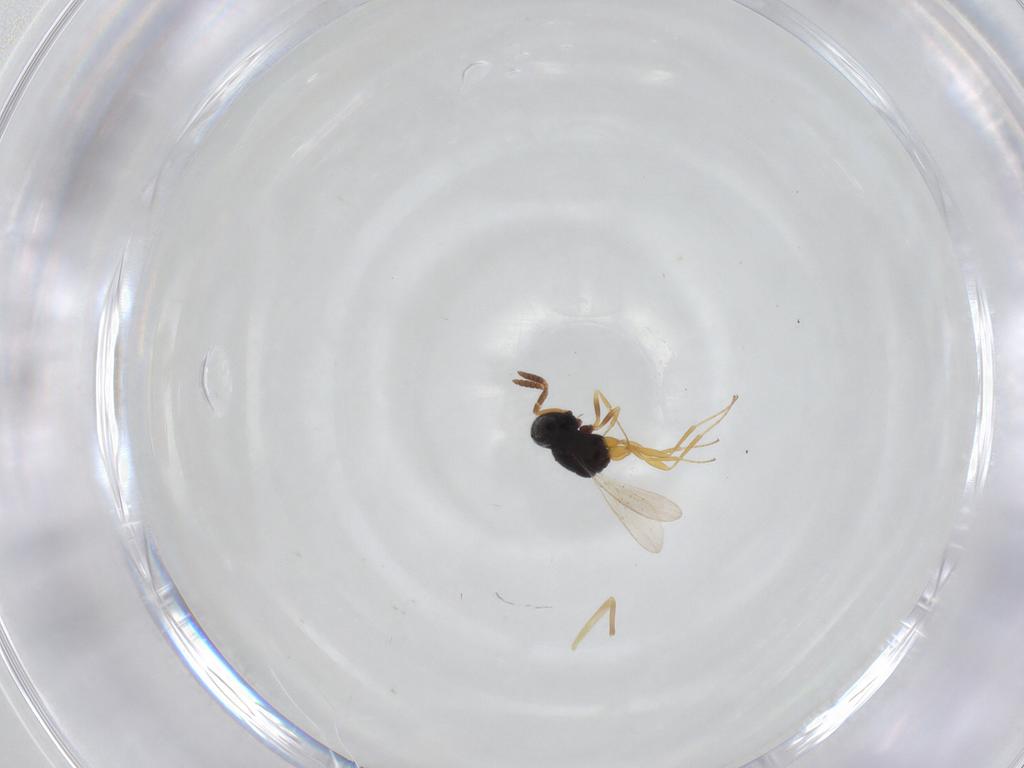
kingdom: Animalia
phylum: Arthropoda
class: Insecta
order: Hymenoptera
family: Scelionidae
